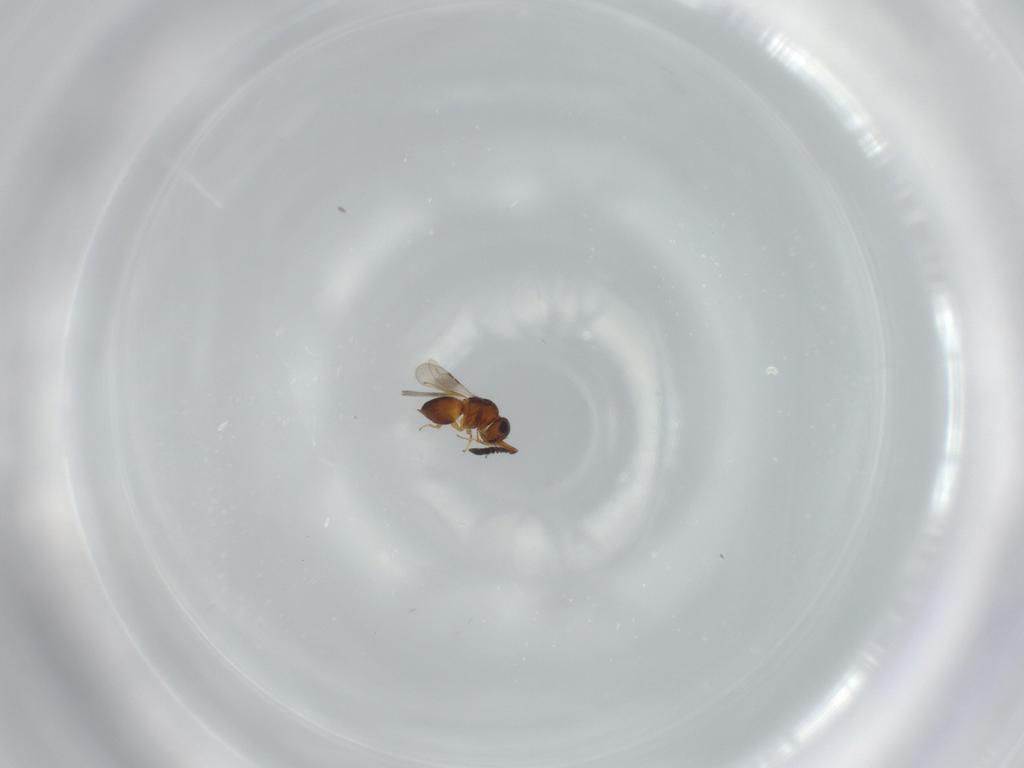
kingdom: Animalia
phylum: Arthropoda
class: Insecta
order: Hymenoptera
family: Ceraphronidae
